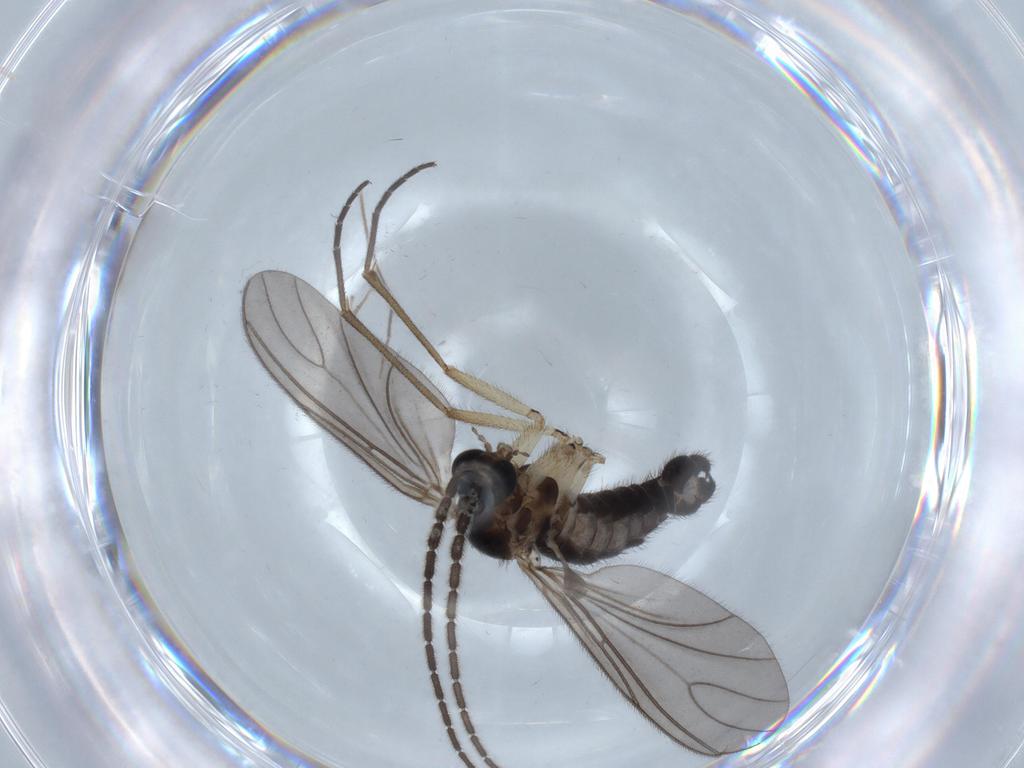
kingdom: Animalia
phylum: Arthropoda
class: Insecta
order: Diptera
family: Sciaridae
